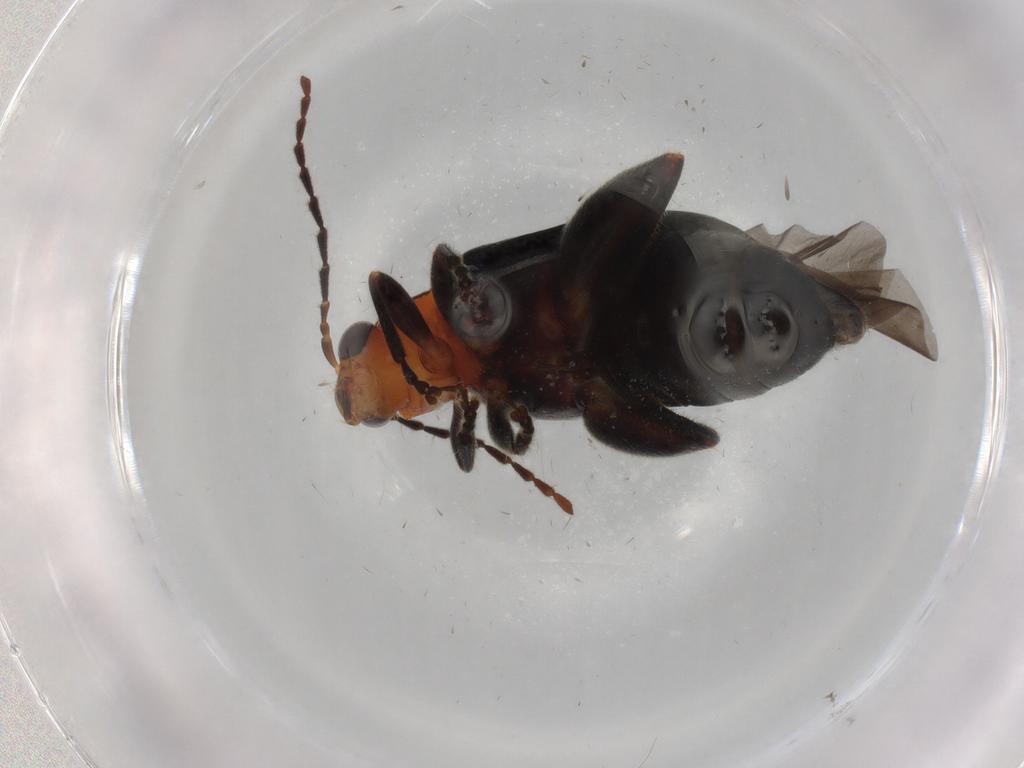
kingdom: Animalia
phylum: Arthropoda
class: Insecta
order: Coleoptera
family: Chrysomelidae
